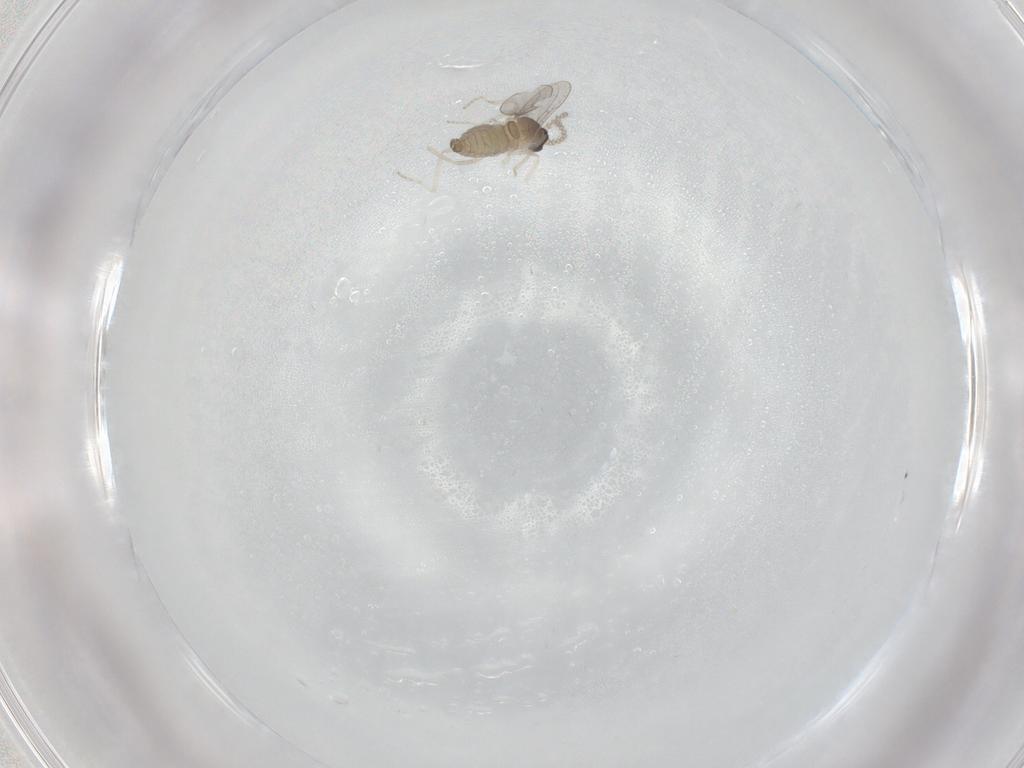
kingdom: Animalia
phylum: Arthropoda
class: Insecta
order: Diptera
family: Cecidomyiidae
